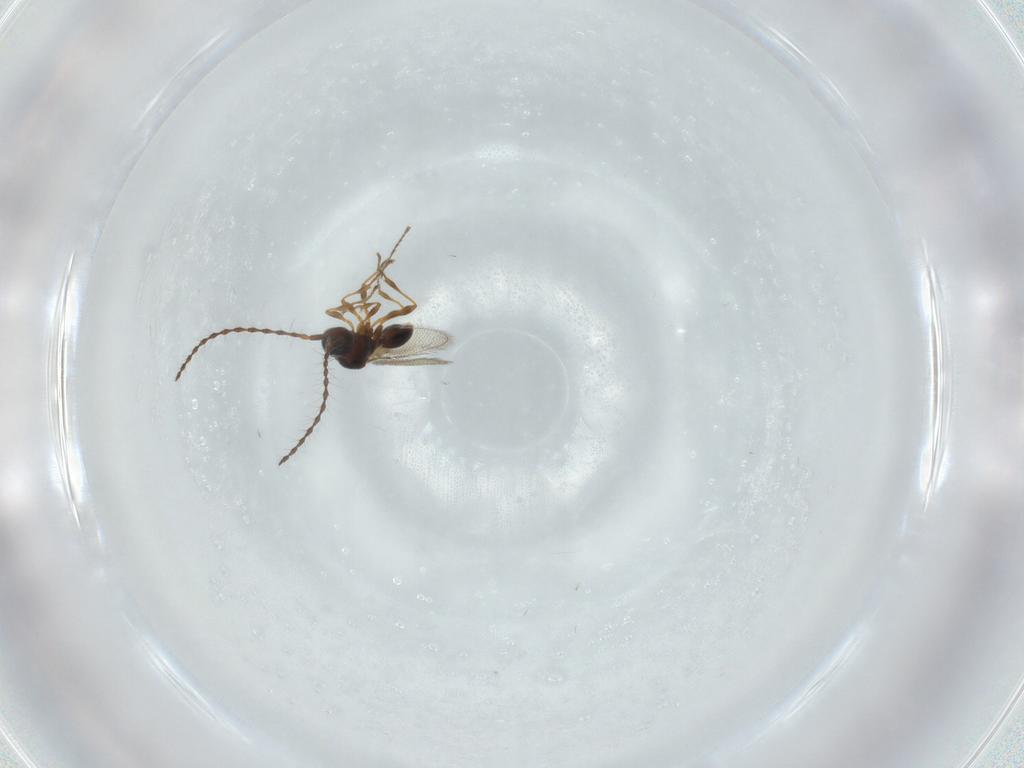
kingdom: Animalia
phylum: Arthropoda
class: Insecta
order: Hymenoptera
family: Diapriidae
